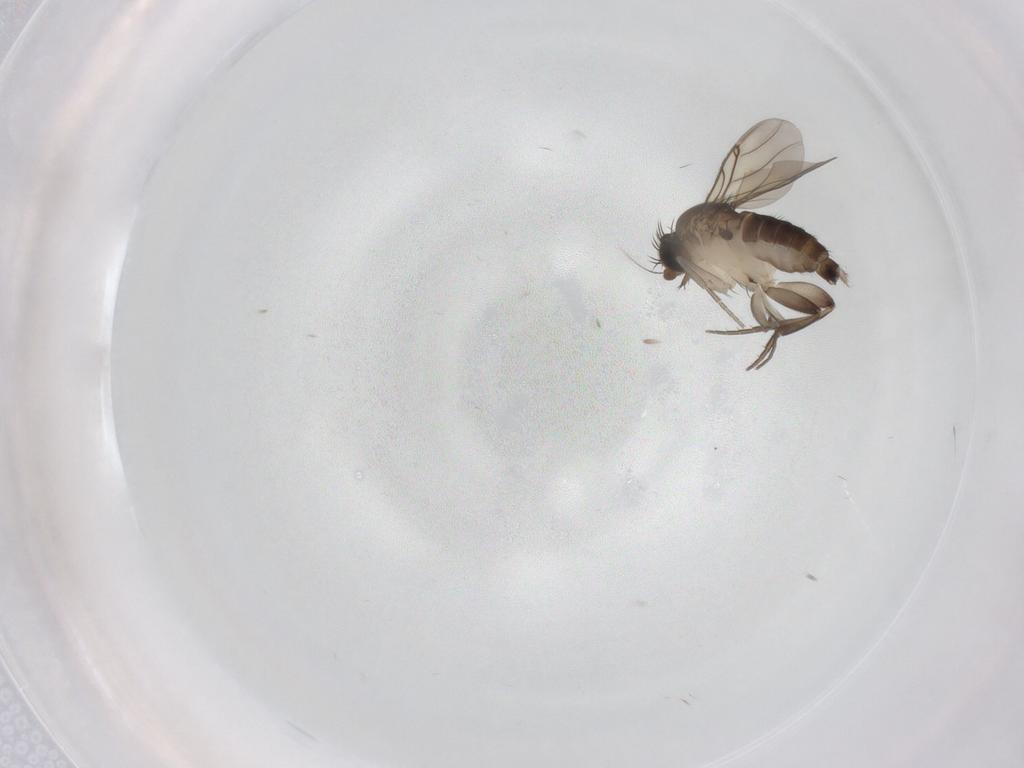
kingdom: Animalia
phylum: Arthropoda
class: Insecta
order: Diptera
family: Phoridae
